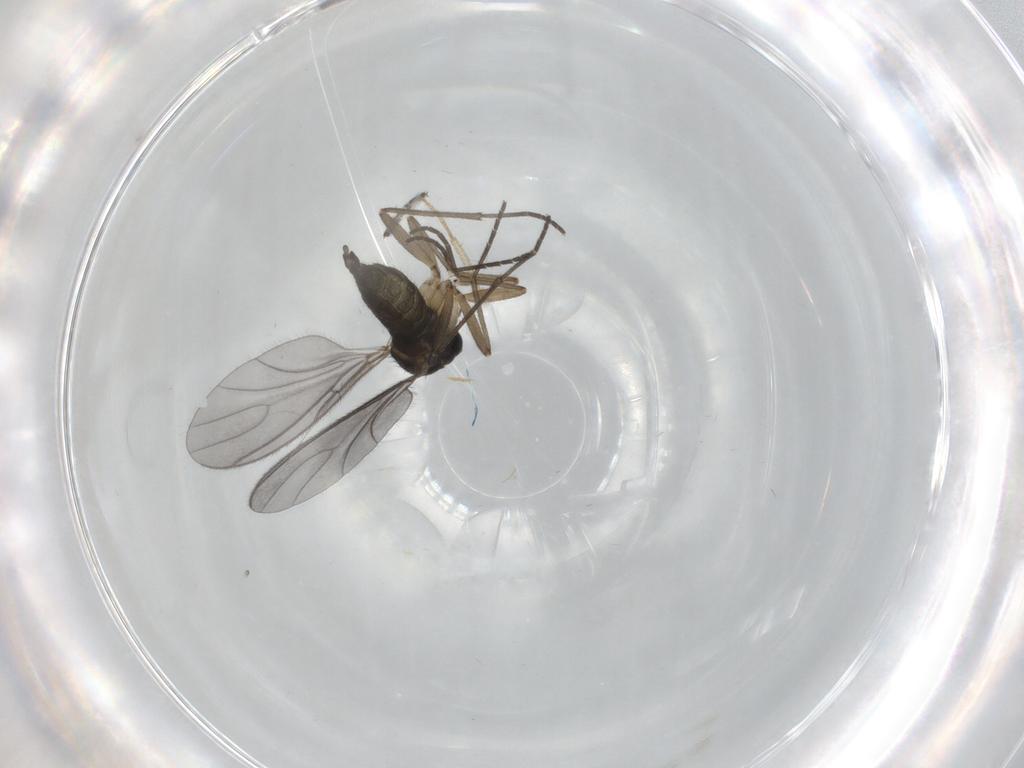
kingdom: Animalia
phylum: Arthropoda
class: Insecta
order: Diptera
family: Sciaridae
